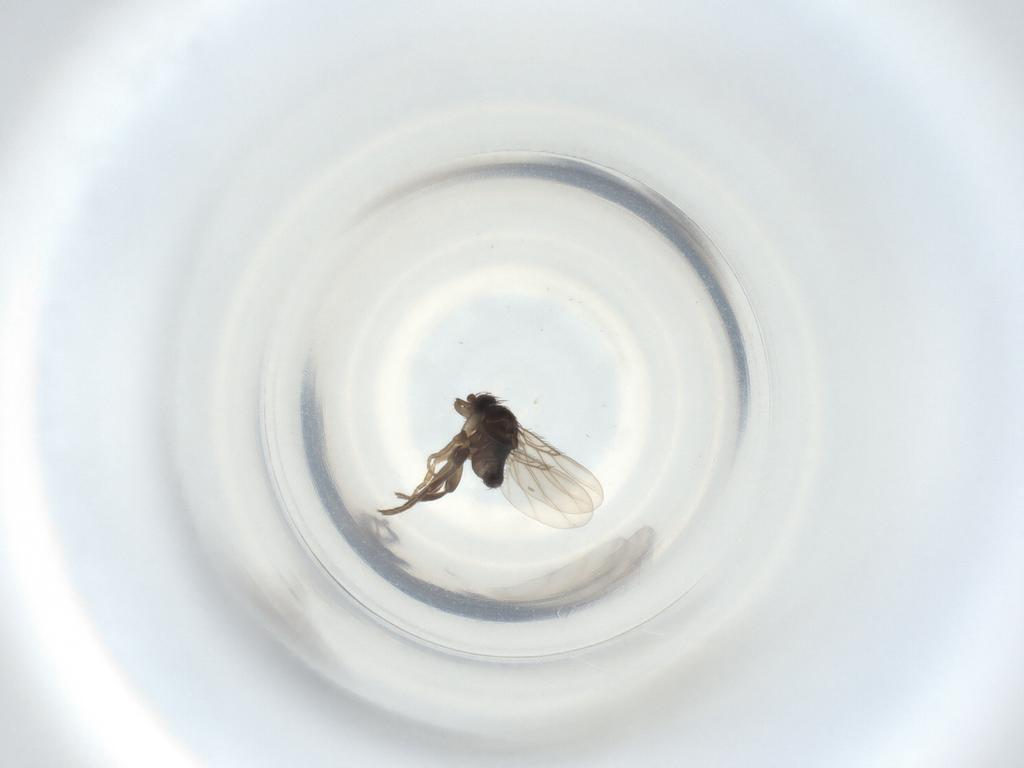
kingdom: Animalia
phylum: Arthropoda
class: Insecta
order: Diptera
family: Phoridae
